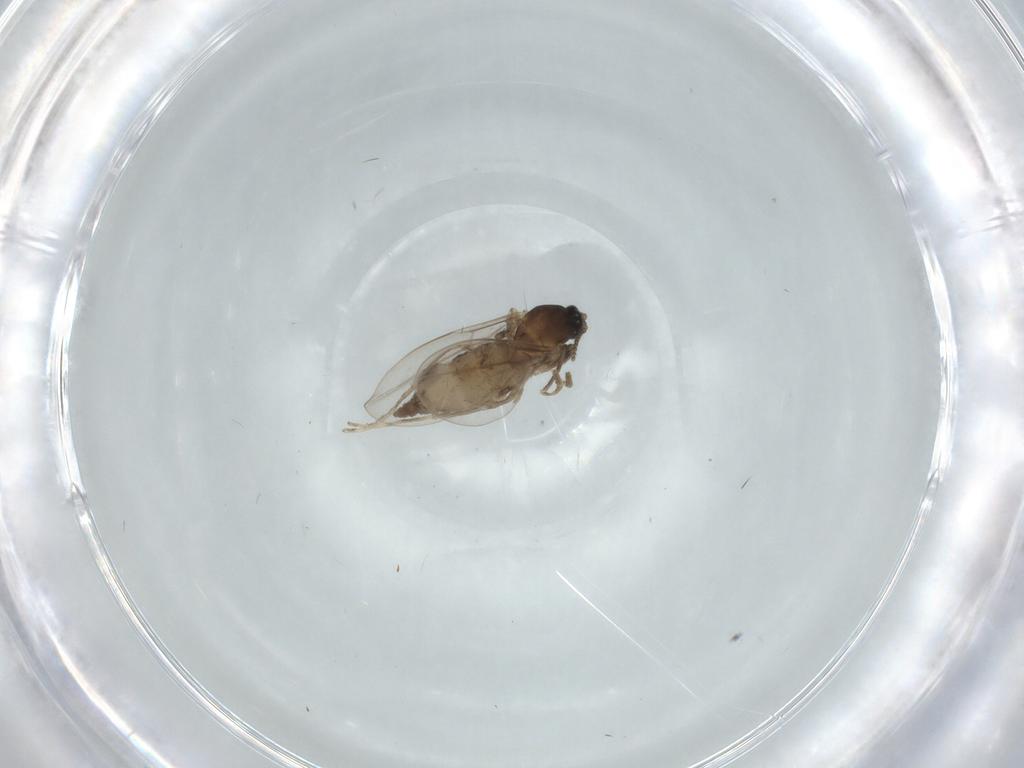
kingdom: Animalia
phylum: Arthropoda
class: Insecta
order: Diptera
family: Cecidomyiidae
